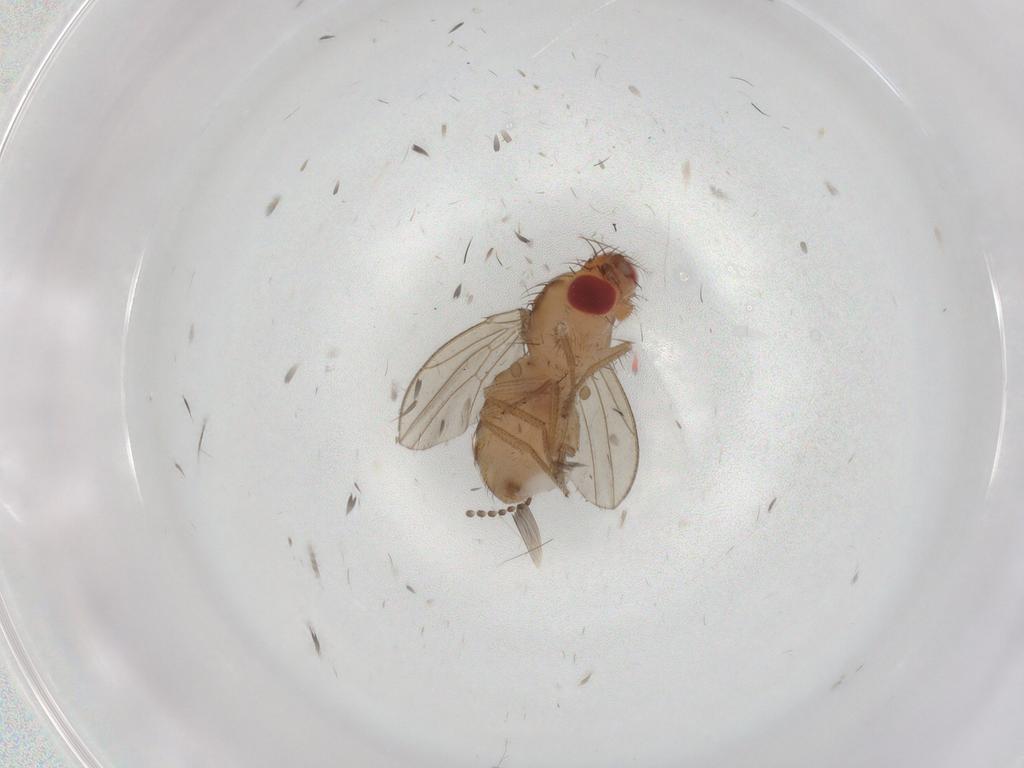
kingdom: Animalia
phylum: Arthropoda
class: Insecta
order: Diptera
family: Drosophilidae
